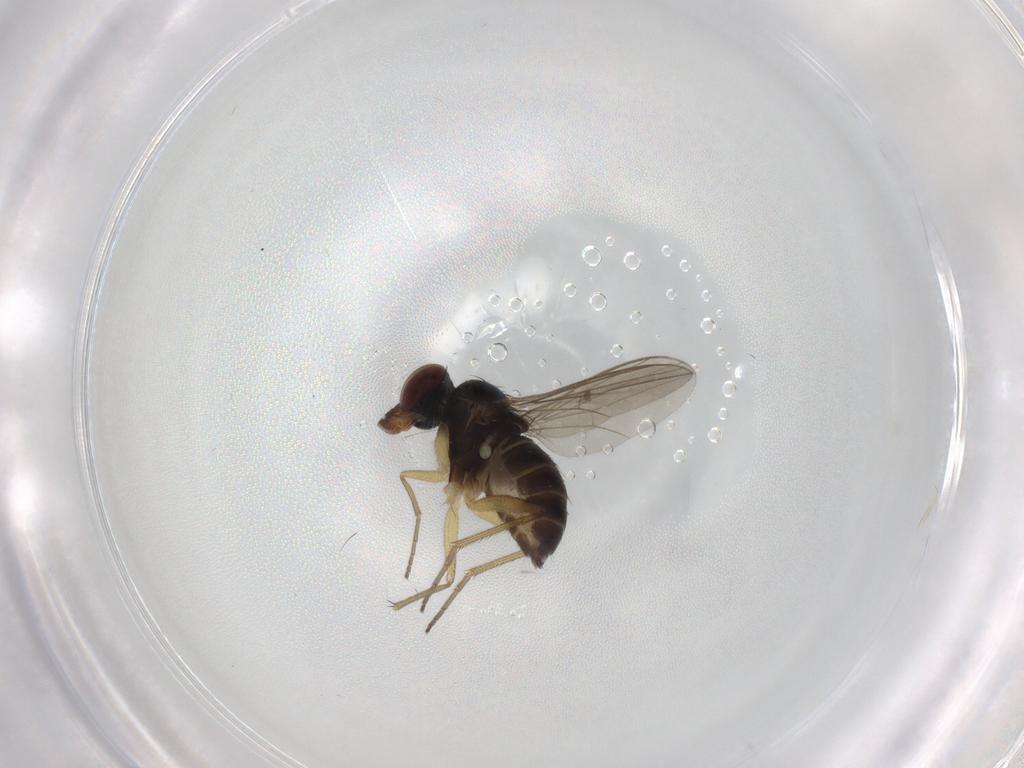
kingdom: Animalia
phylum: Arthropoda
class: Insecta
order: Diptera
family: Dolichopodidae
